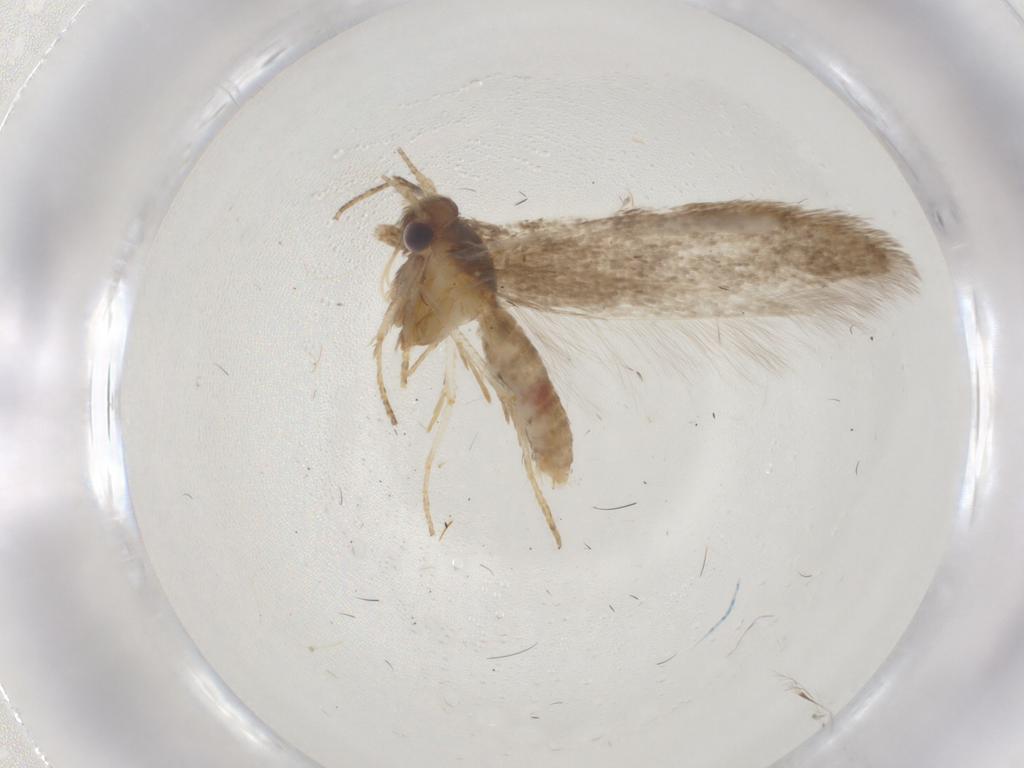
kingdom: Animalia
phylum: Arthropoda
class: Insecta
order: Lepidoptera
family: Coleophoridae
